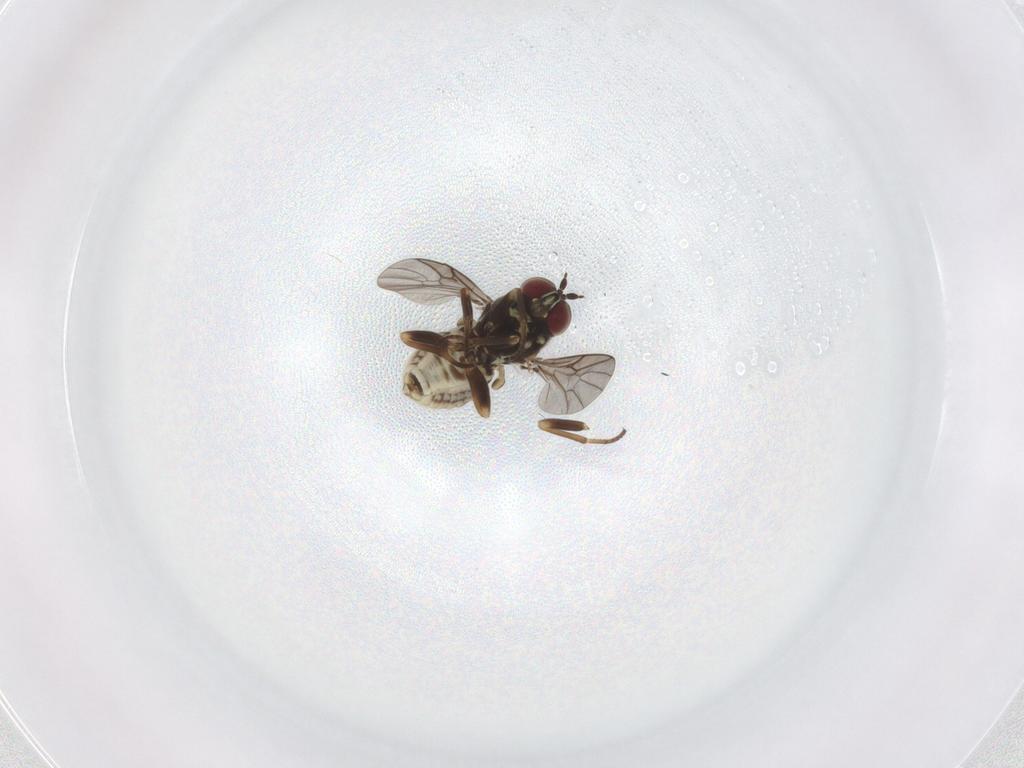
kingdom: Animalia
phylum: Arthropoda
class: Insecta
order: Diptera
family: Bombyliidae
